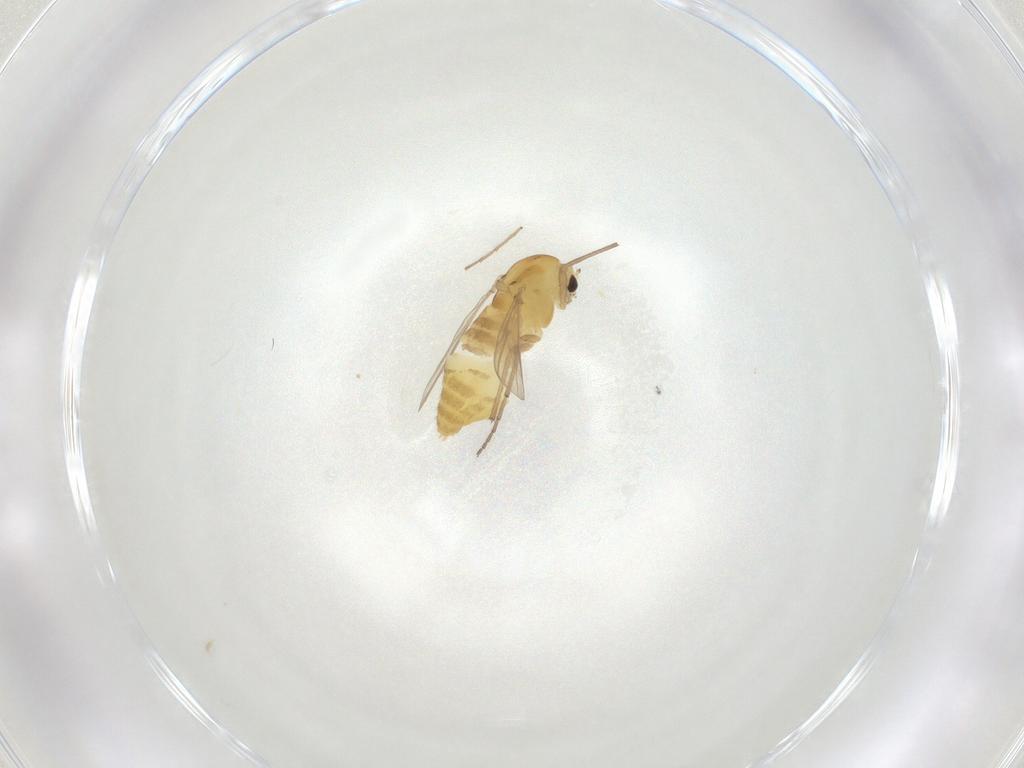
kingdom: Animalia
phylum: Arthropoda
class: Insecta
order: Diptera
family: Chironomidae
